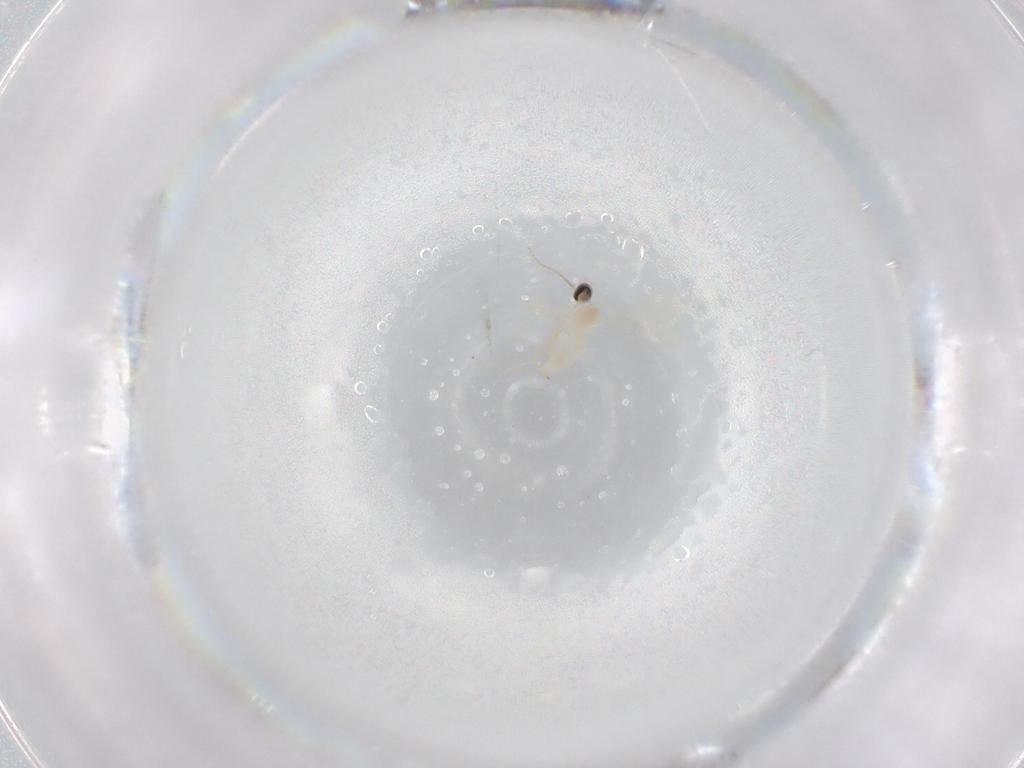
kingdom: Animalia
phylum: Arthropoda
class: Insecta
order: Diptera
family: Cecidomyiidae
